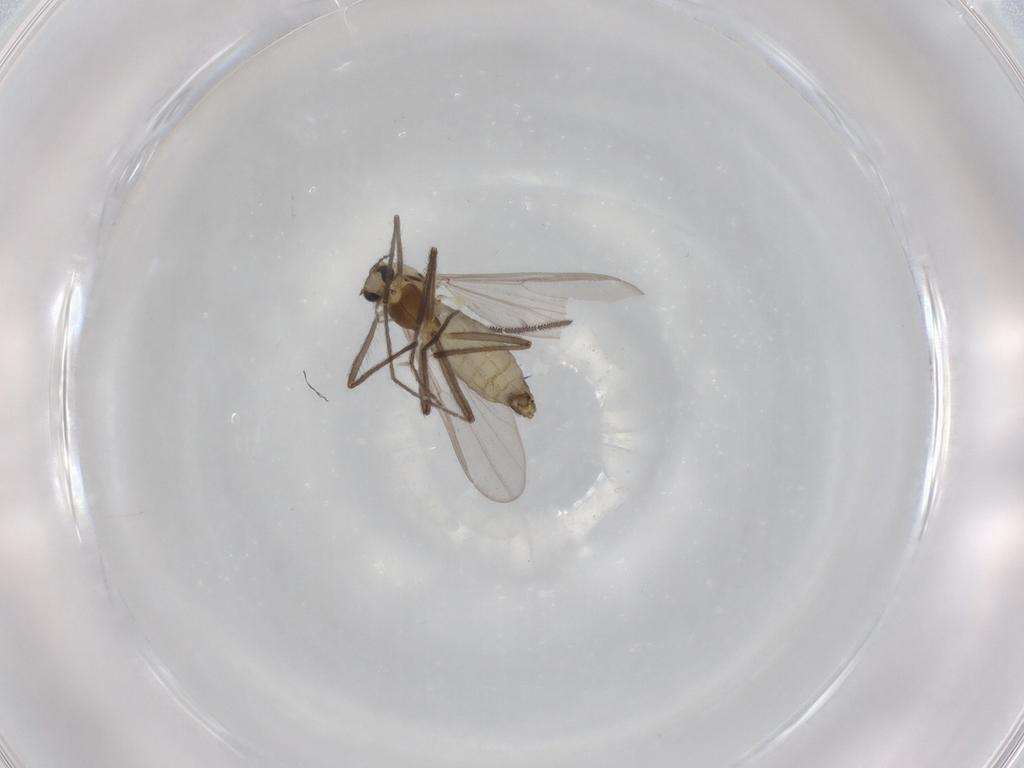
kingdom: Animalia
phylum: Arthropoda
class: Insecta
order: Diptera
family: Chironomidae
